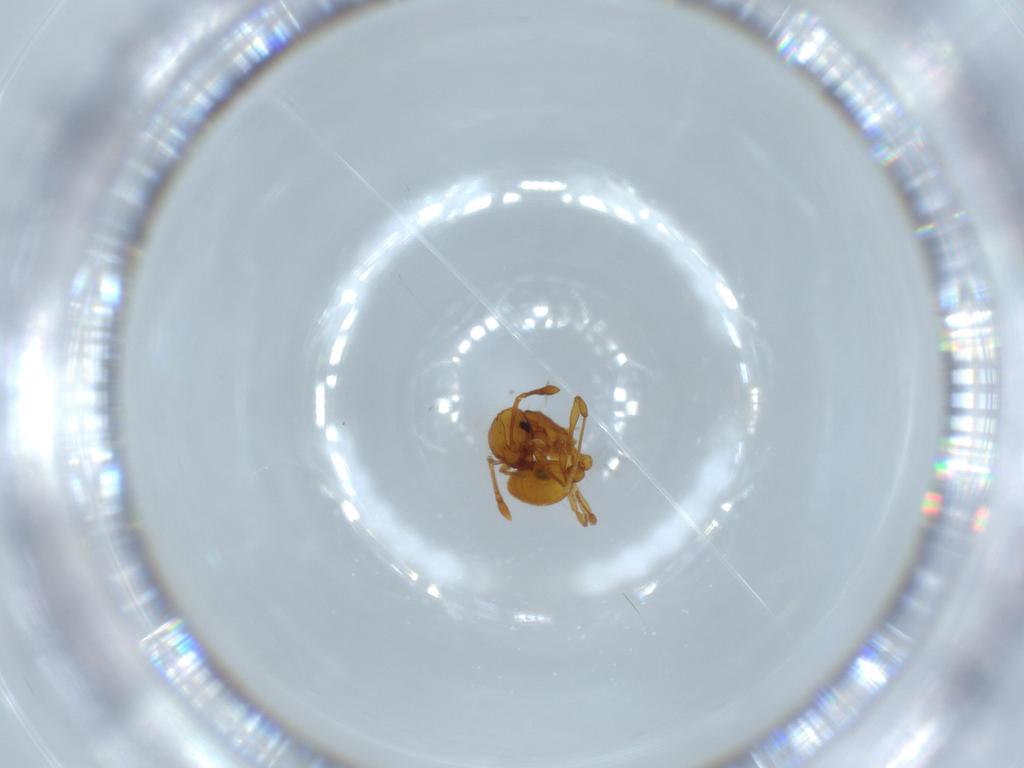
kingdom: Animalia
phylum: Arthropoda
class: Insecta
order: Hymenoptera
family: Formicidae
